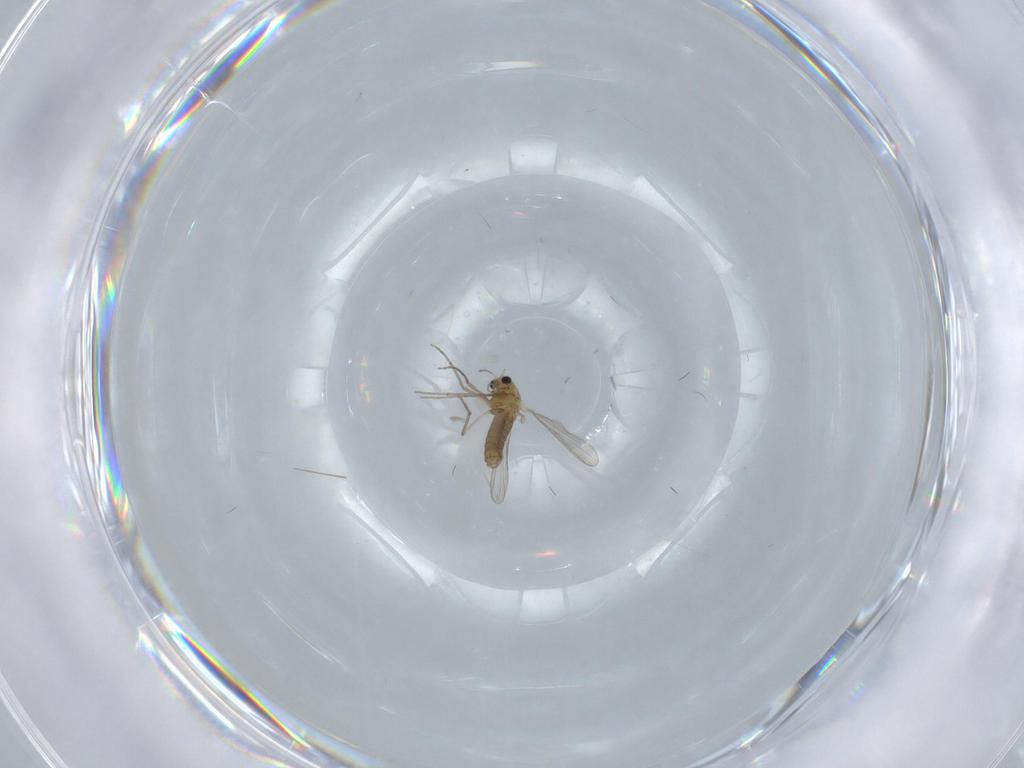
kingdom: Animalia
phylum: Arthropoda
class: Insecta
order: Diptera
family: Chironomidae
